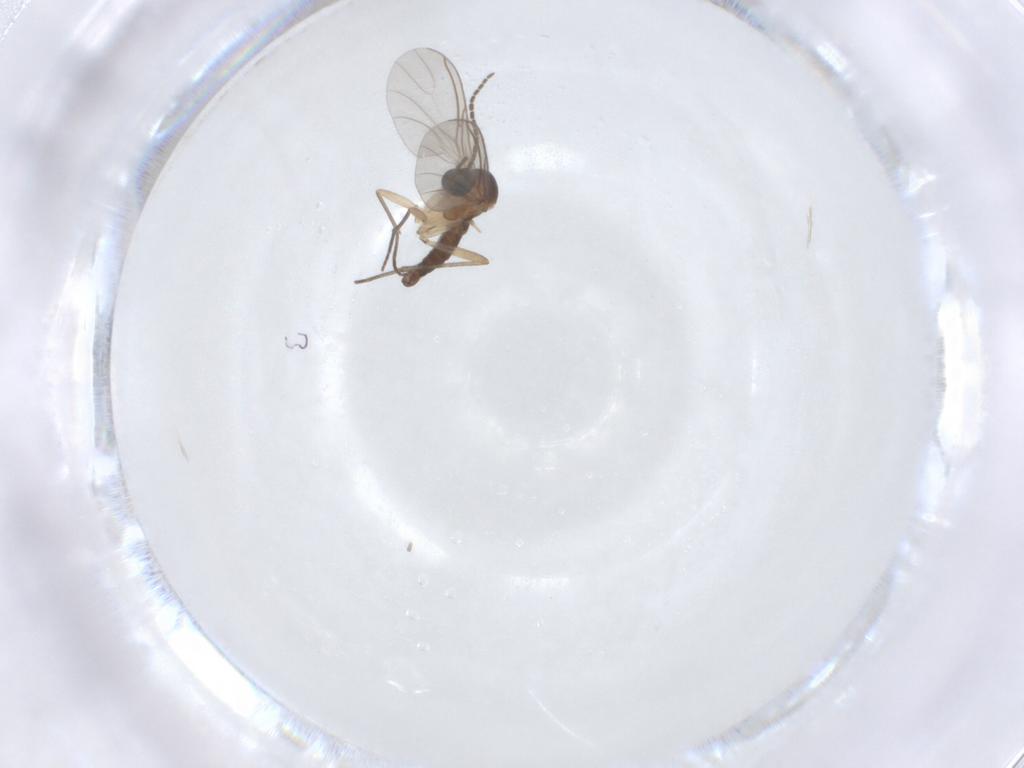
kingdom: Animalia
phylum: Arthropoda
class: Insecta
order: Diptera
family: Sciaridae
